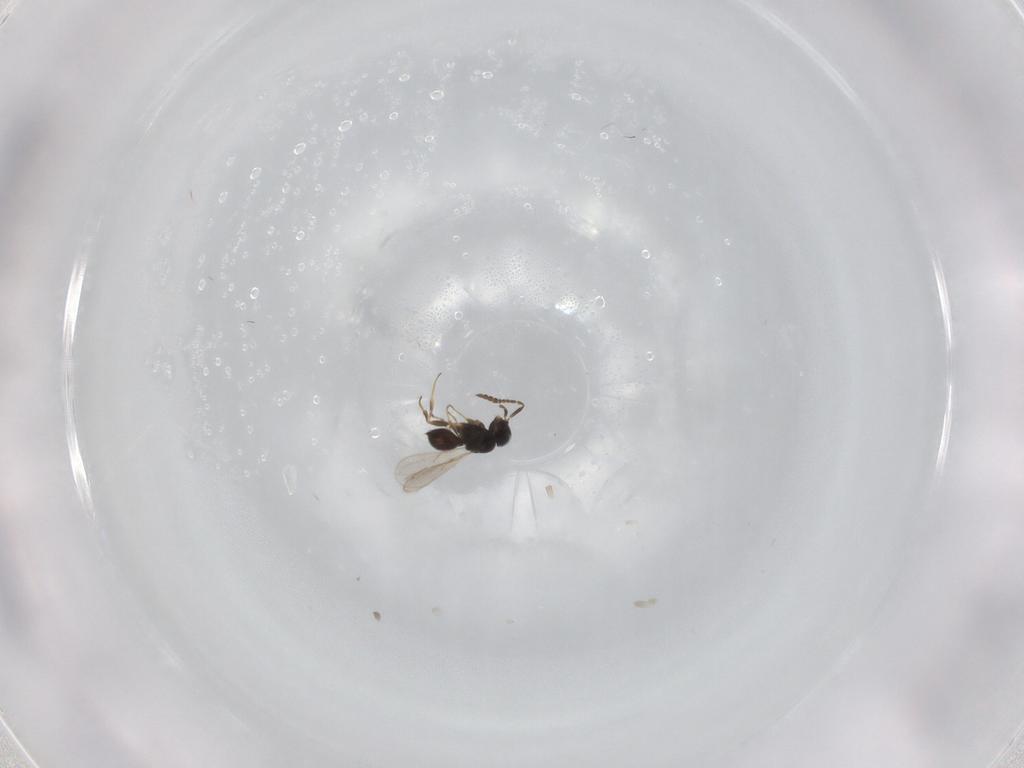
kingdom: Animalia
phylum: Arthropoda
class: Insecta
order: Hymenoptera
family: Scelionidae
